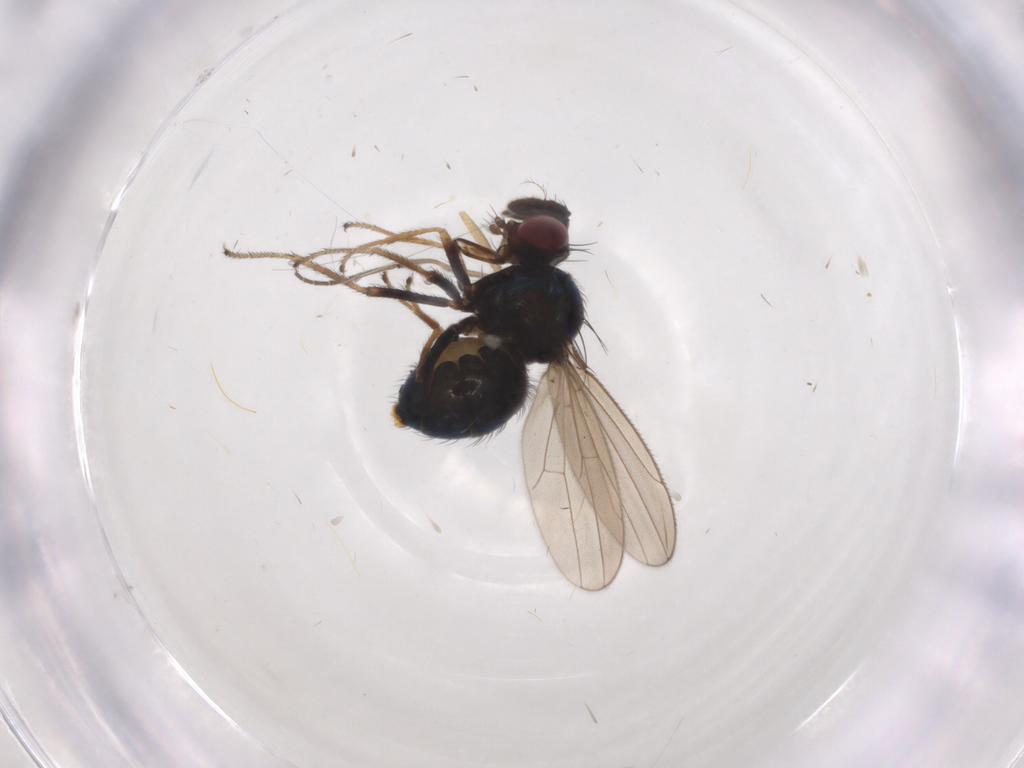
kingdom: Animalia
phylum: Arthropoda
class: Insecta
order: Diptera
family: Ephydridae
